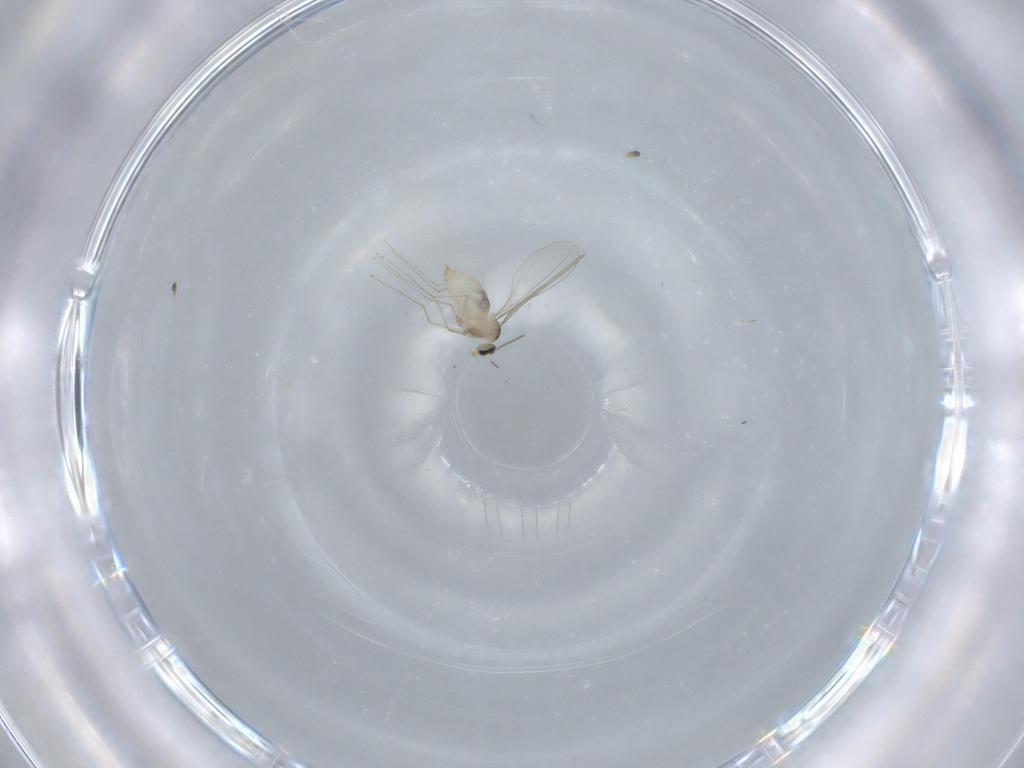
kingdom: Animalia
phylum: Arthropoda
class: Insecta
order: Diptera
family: Cecidomyiidae
